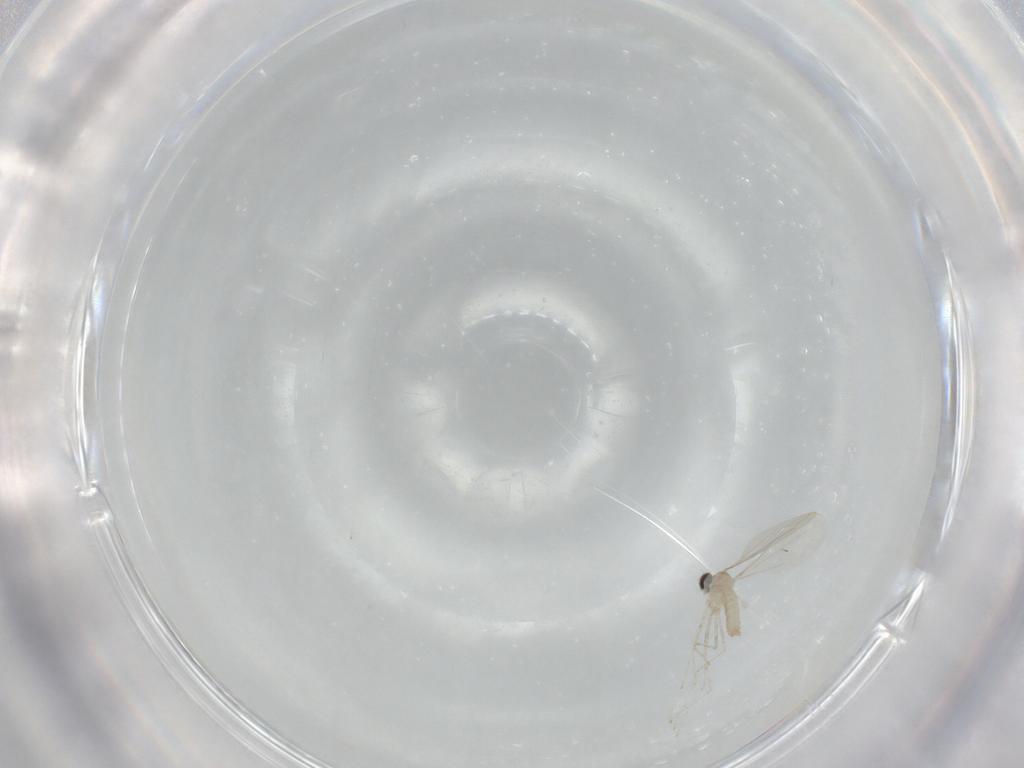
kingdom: Animalia
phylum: Arthropoda
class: Insecta
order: Diptera
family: Cecidomyiidae
